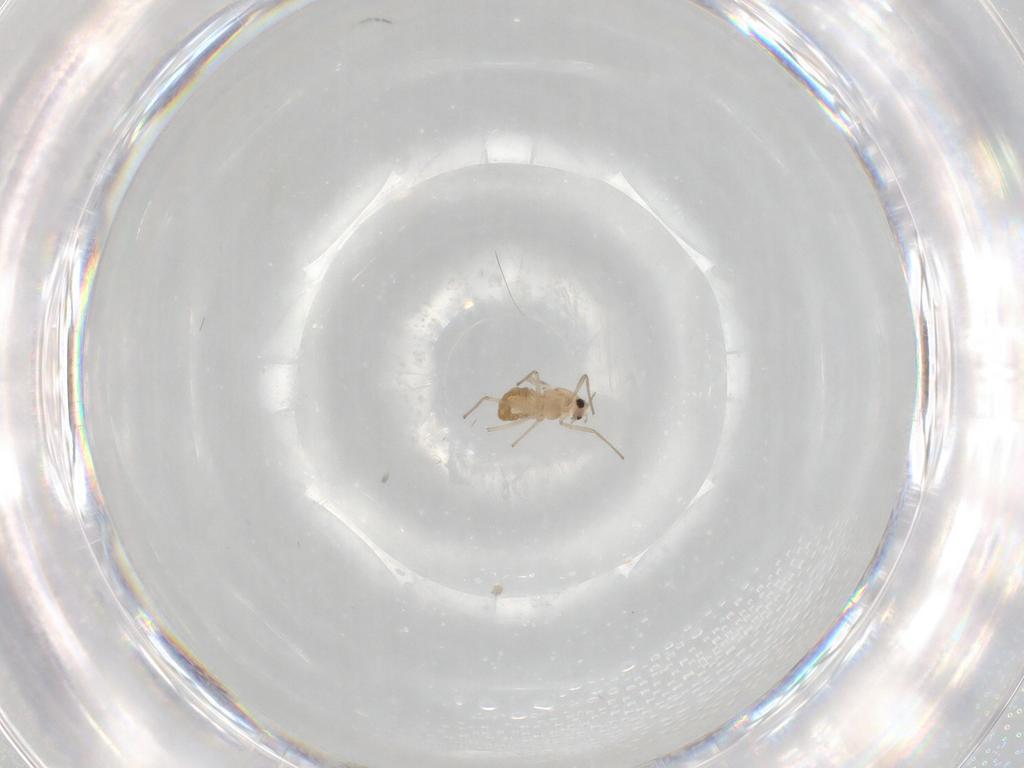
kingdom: Animalia
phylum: Arthropoda
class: Insecta
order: Diptera
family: Chironomidae
